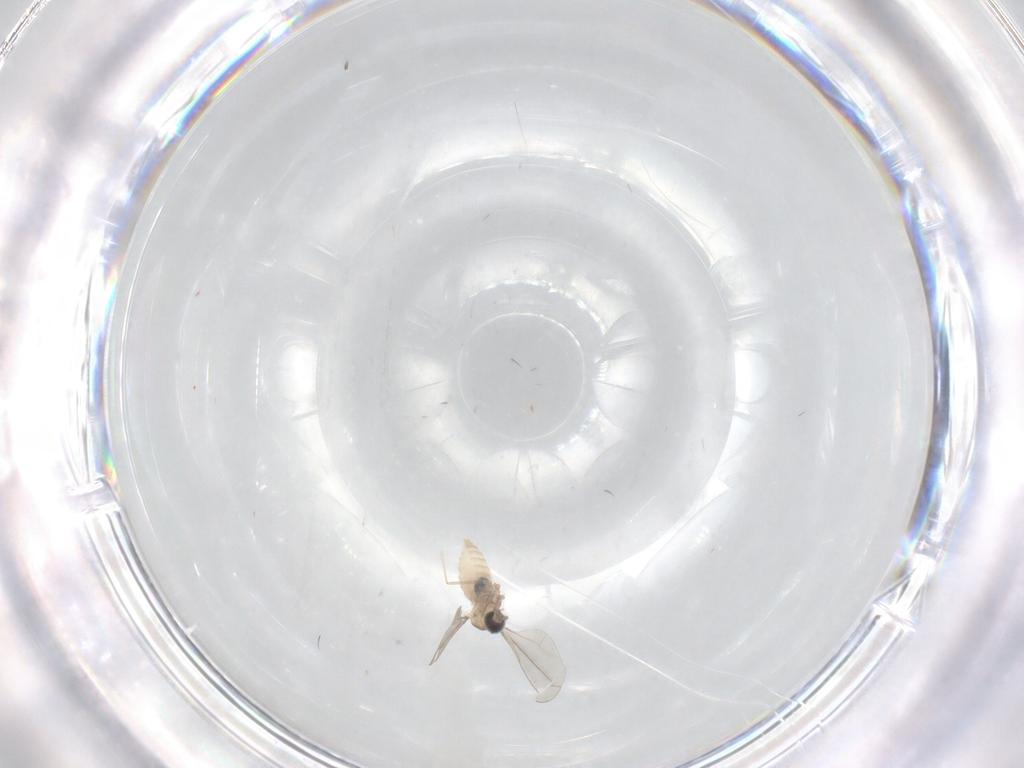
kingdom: Animalia
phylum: Arthropoda
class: Insecta
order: Diptera
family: Cecidomyiidae
